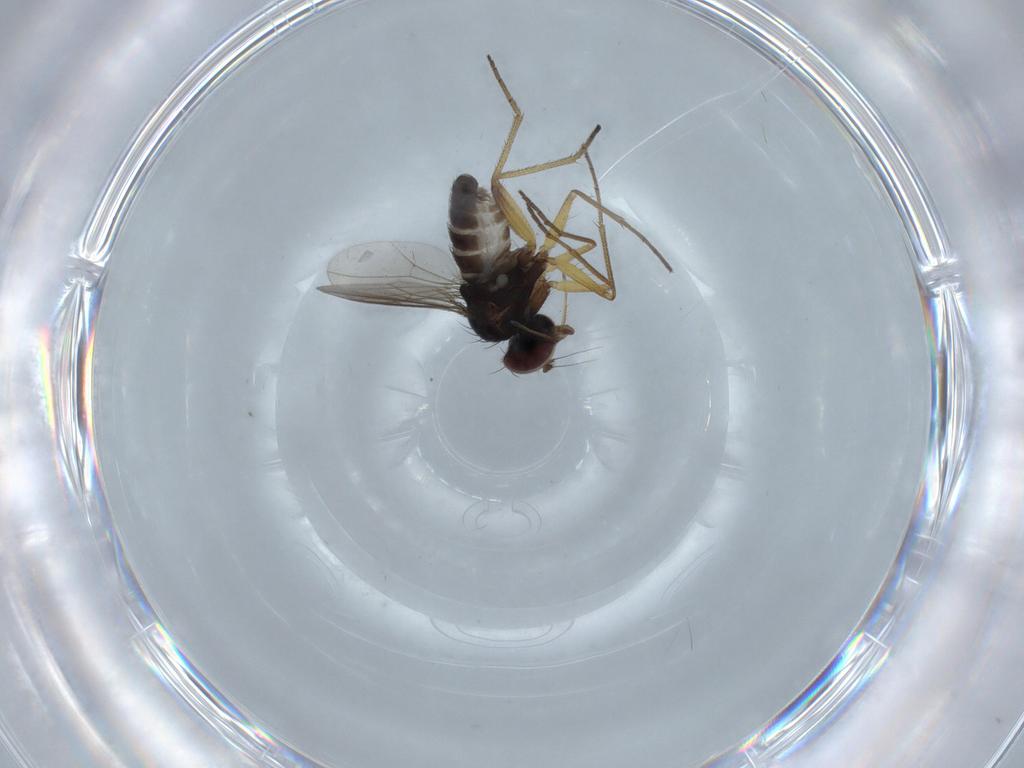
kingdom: Animalia
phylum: Arthropoda
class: Insecta
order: Diptera
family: Dolichopodidae
